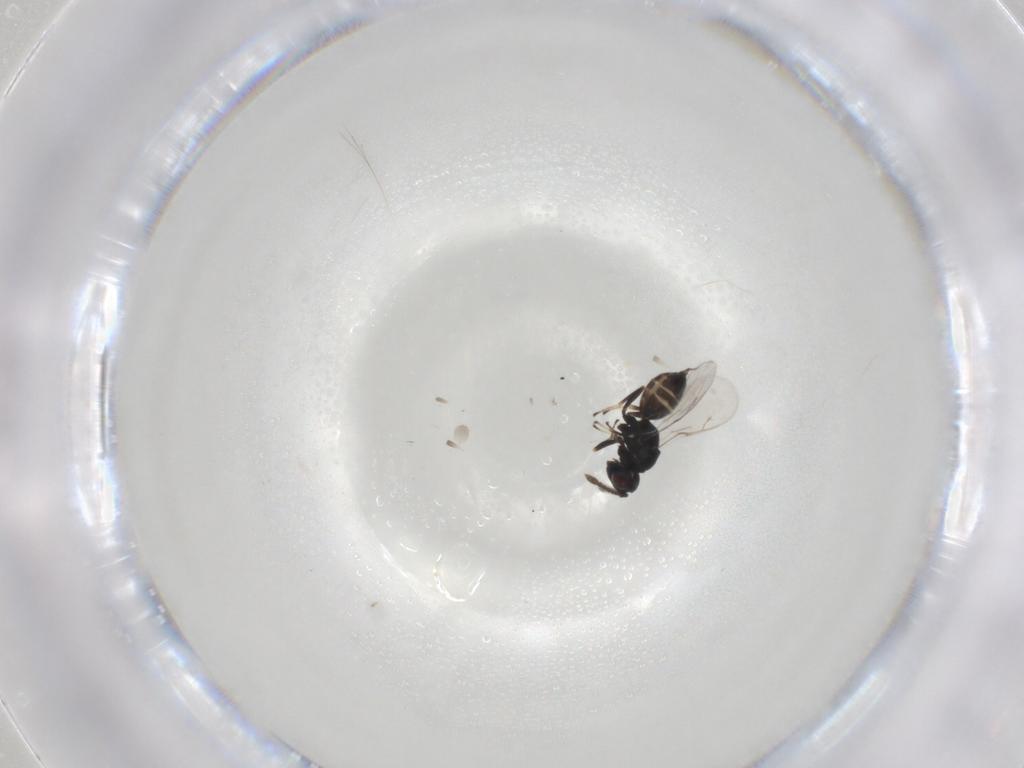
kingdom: Animalia
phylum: Arthropoda
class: Insecta
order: Hymenoptera
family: Pteromalidae
